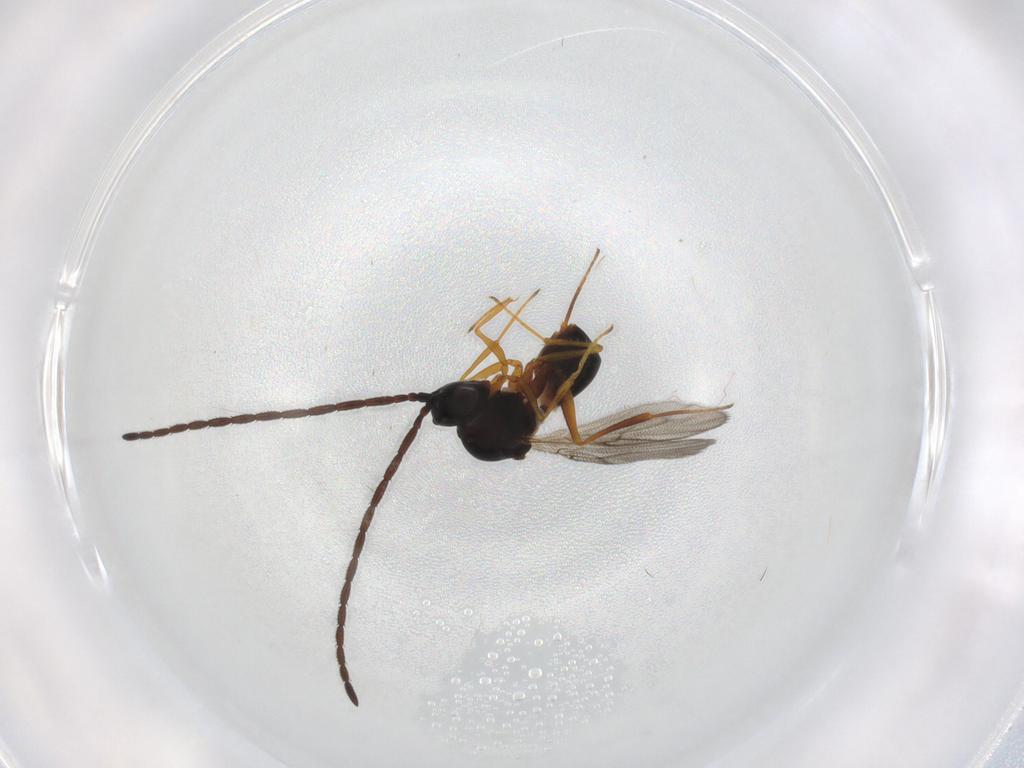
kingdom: Animalia
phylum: Arthropoda
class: Insecta
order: Hymenoptera
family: Figitidae
